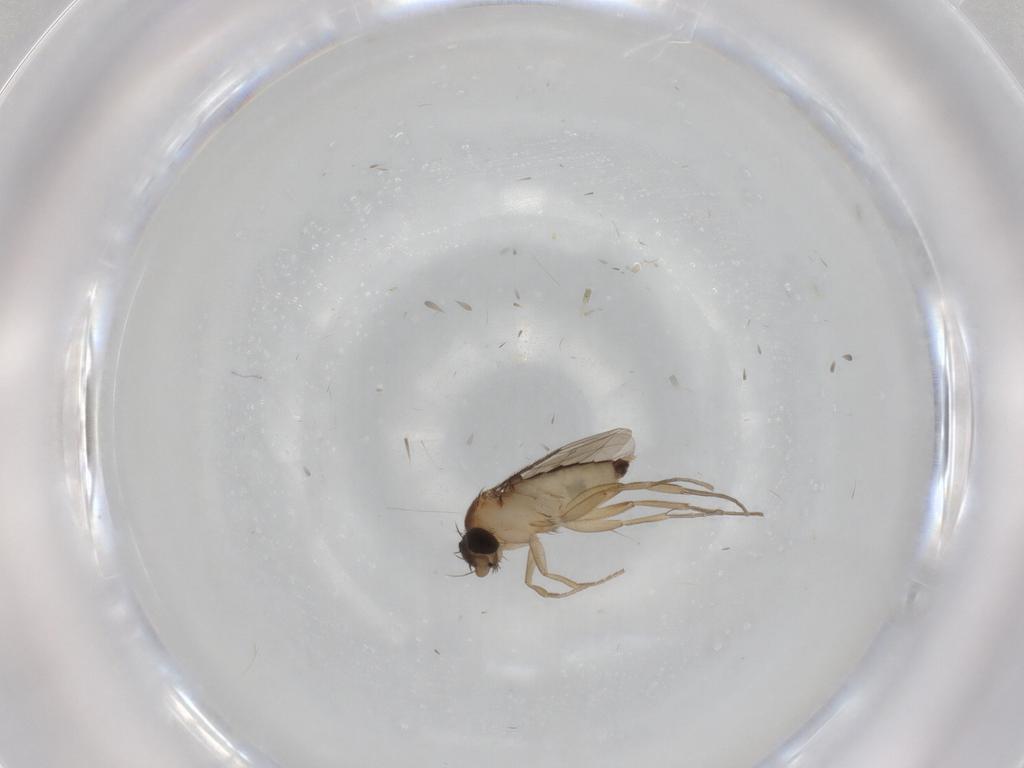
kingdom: Animalia
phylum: Arthropoda
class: Insecta
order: Diptera
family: Phoridae
